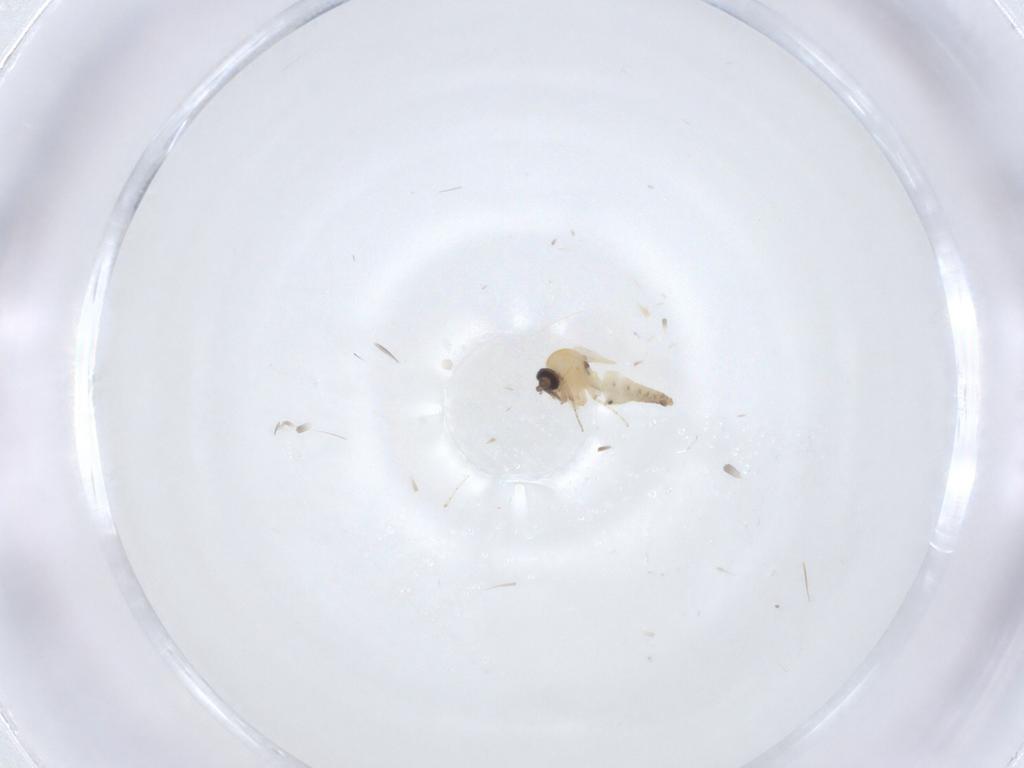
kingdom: Animalia
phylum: Arthropoda
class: Insecta
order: Diptera
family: Ceratopogonidae
